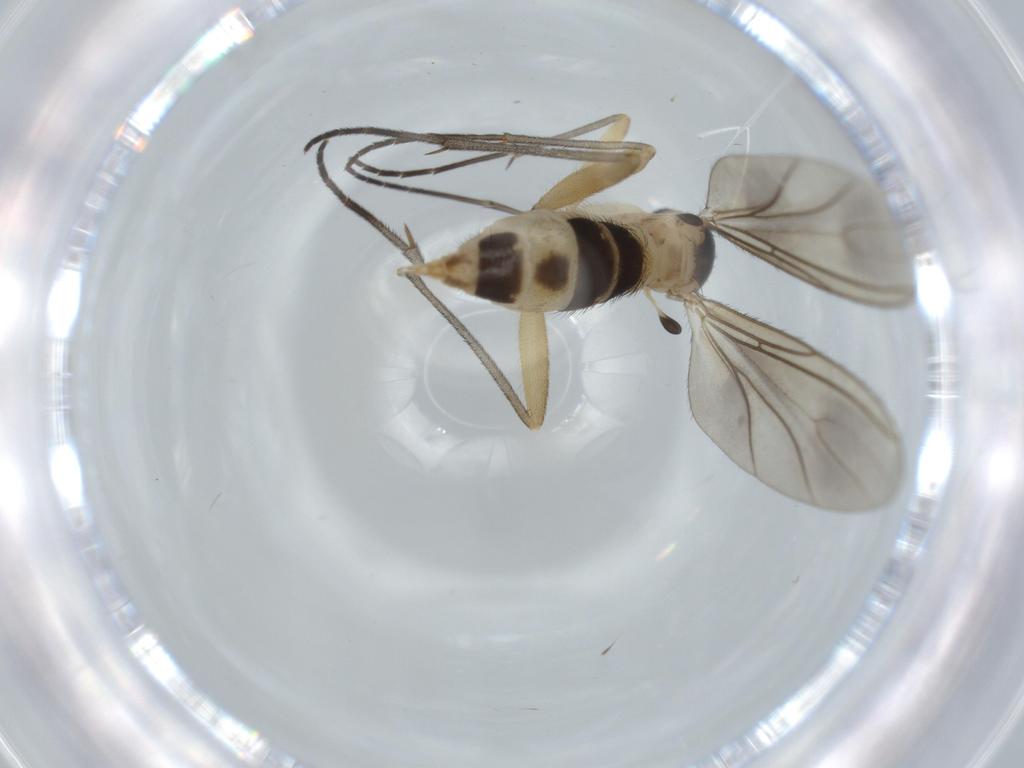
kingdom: Animalia
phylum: Arthropoda
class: Insecta
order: Diptera
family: Sciaridae
